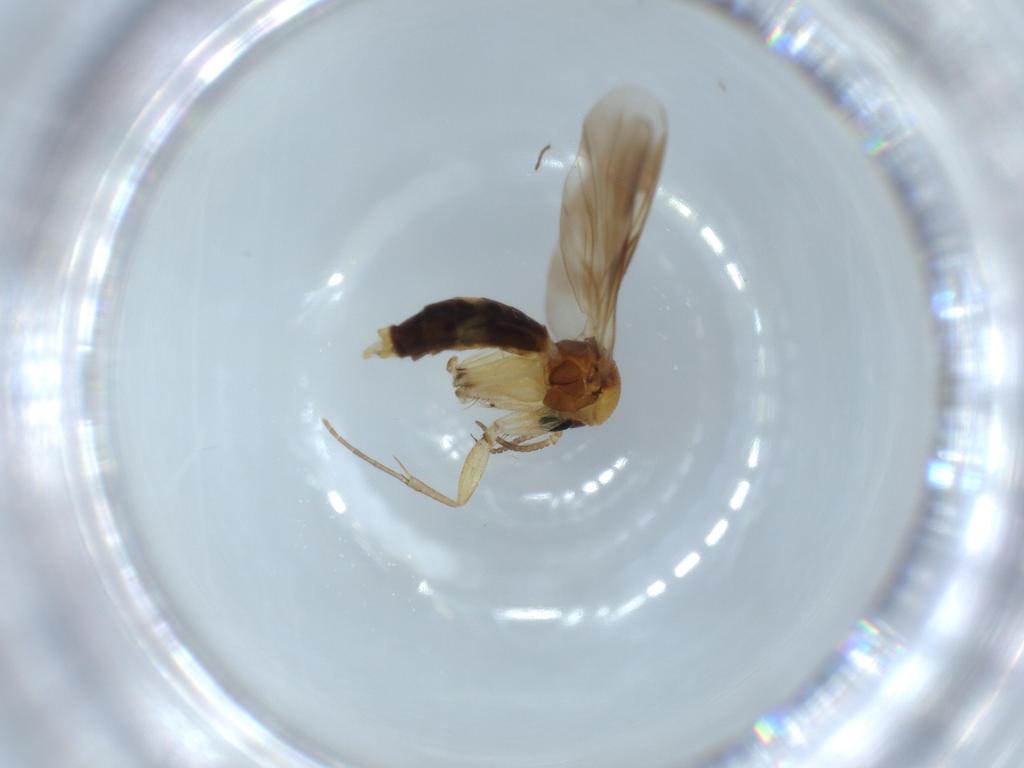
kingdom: Animalia
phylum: Arthropoda
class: Insecta
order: Diptera
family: Mycetophilidae
